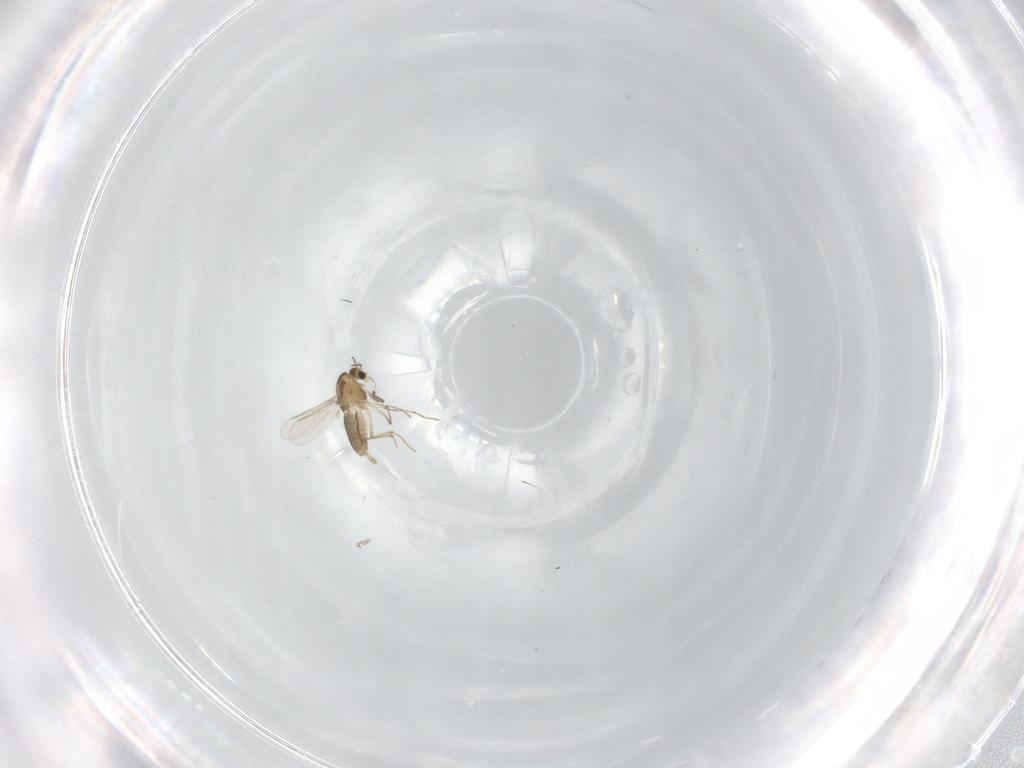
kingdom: Animalia
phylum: Arthropoda
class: Insecta
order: Diptera
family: Chironomidae
